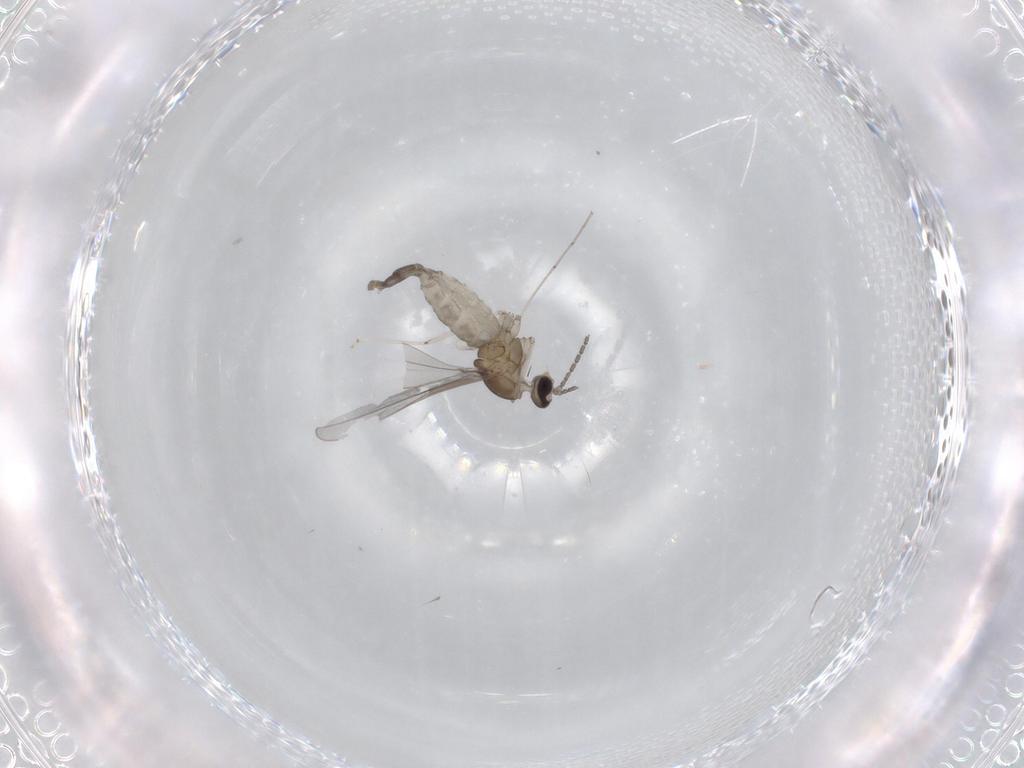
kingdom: Animalia
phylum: Arthropoda
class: Insecta
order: Diptera
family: Cecidomyiidae
